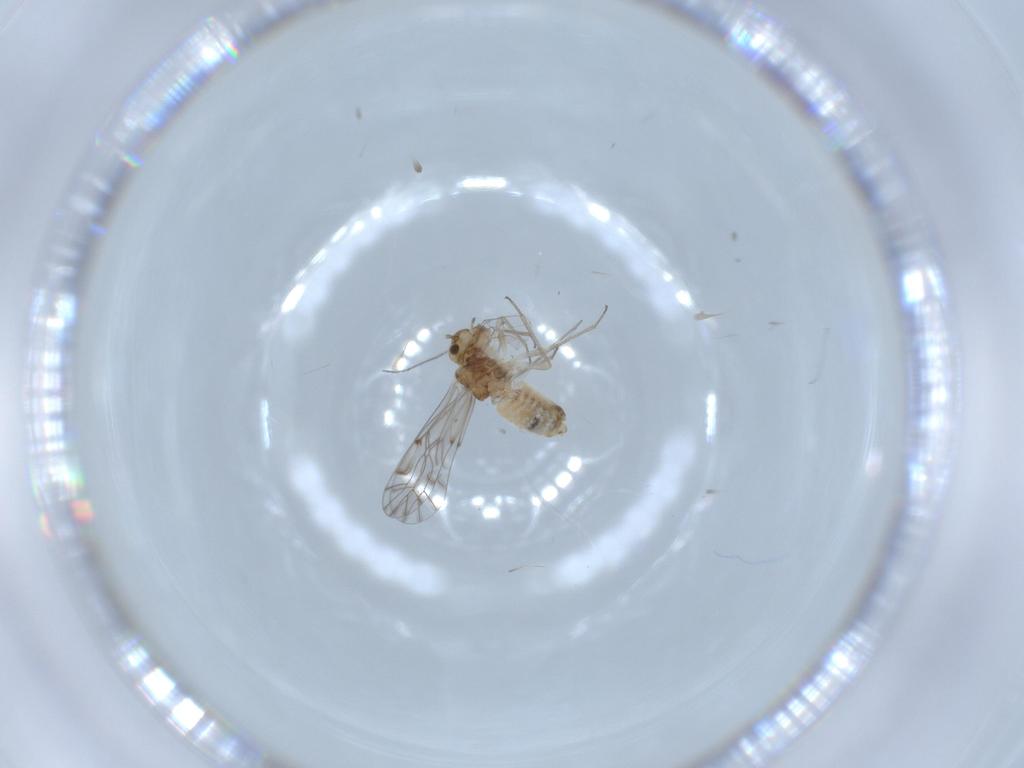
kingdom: Animalia
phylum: Arthropoda
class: Insecta
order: Psocodea
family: Lachesillidae
